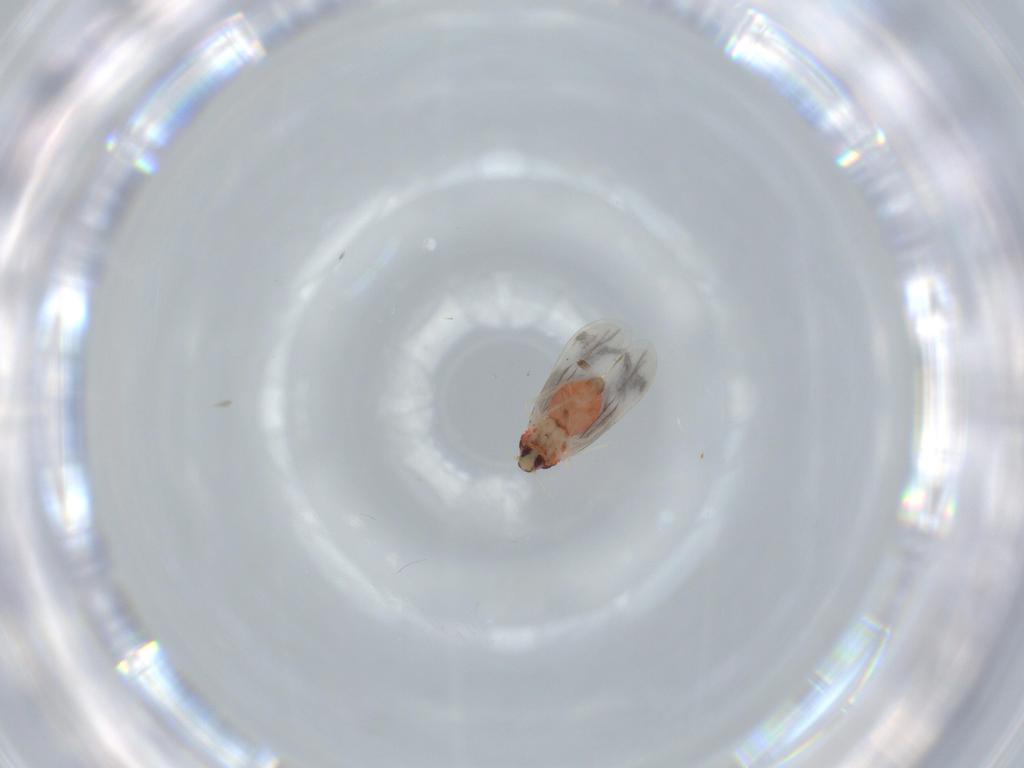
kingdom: Animalia
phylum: Arthropoda
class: Insecta
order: Hemiptera
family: Aleyrodidae
